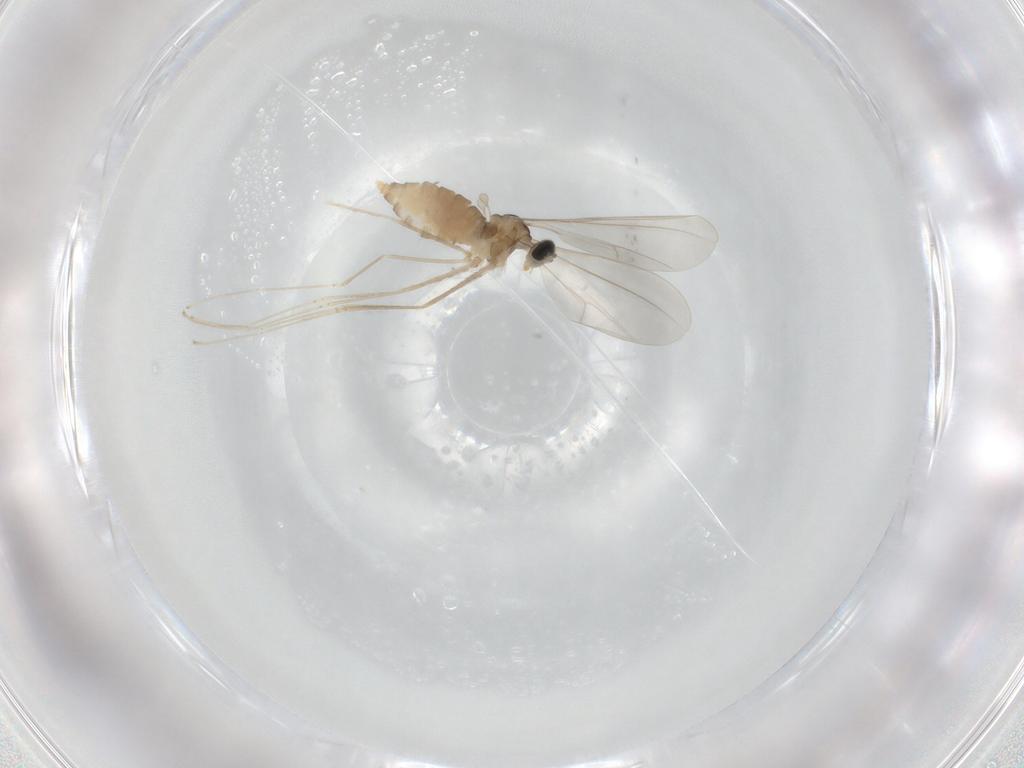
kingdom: Animalia
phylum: Arthropoda
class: Insecta
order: Diptera
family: Cecidomyiidae
